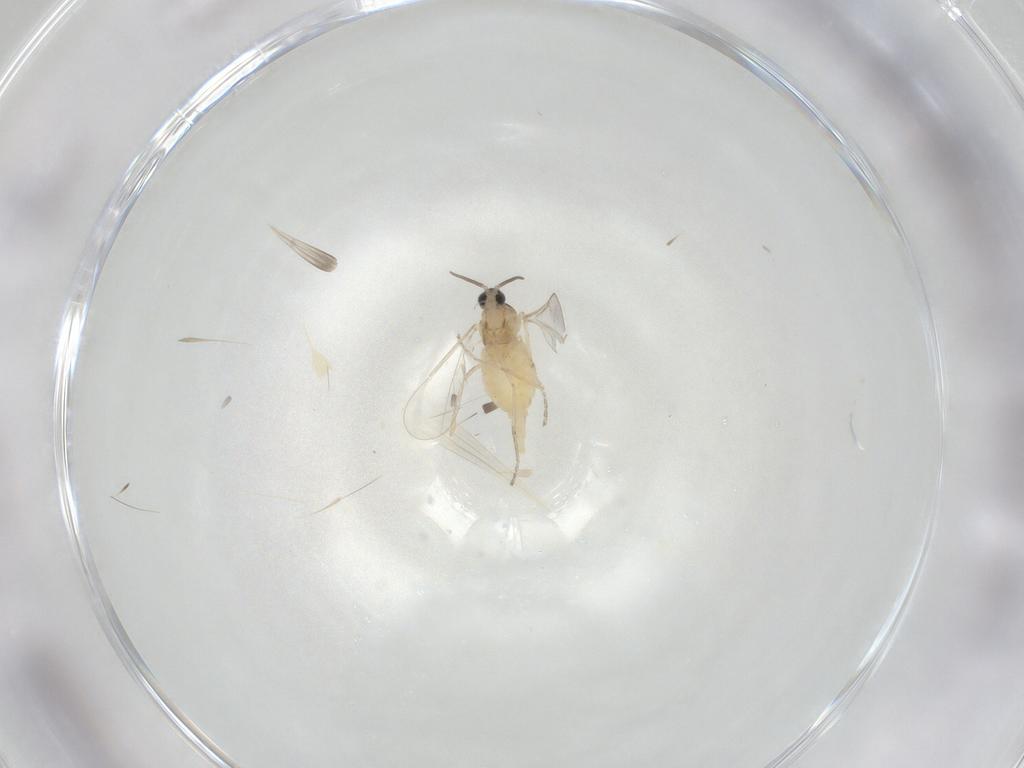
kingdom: Animalia
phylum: Arthropoda
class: Insecta
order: Diptera
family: Cecidomyiidae
